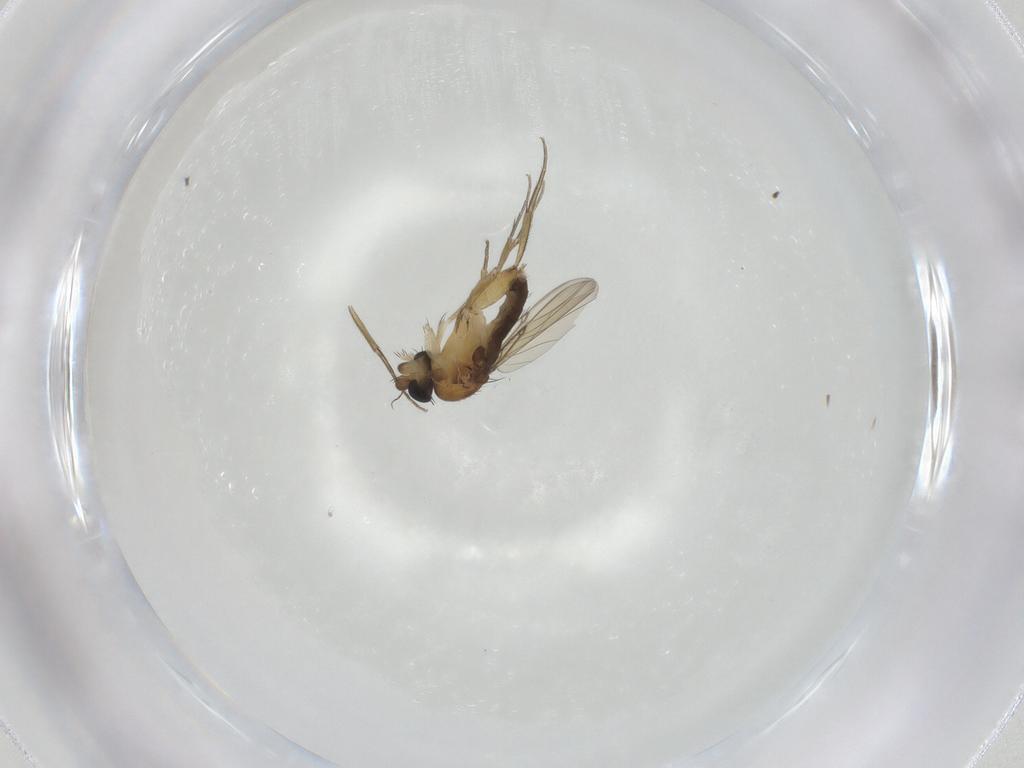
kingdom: Animalia
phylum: Arthropoda
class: Insecta
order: Diptera
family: Phoridae
